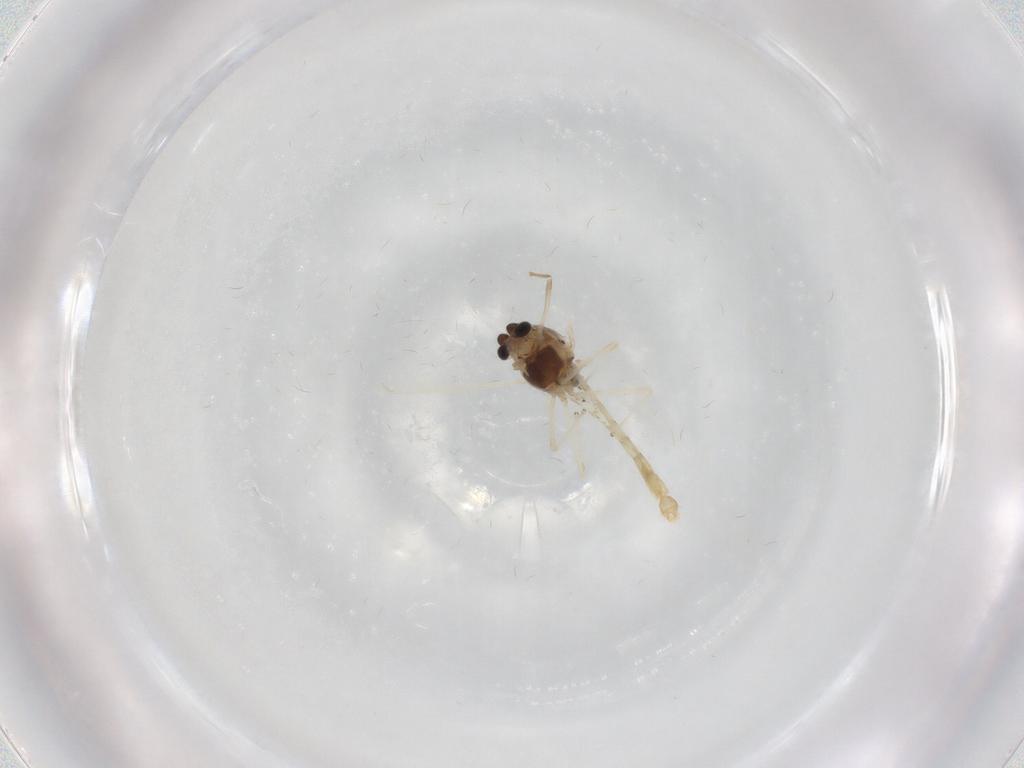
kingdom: Animalia
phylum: Arthropoda
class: Insecta
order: Diptera
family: Chironomidae
